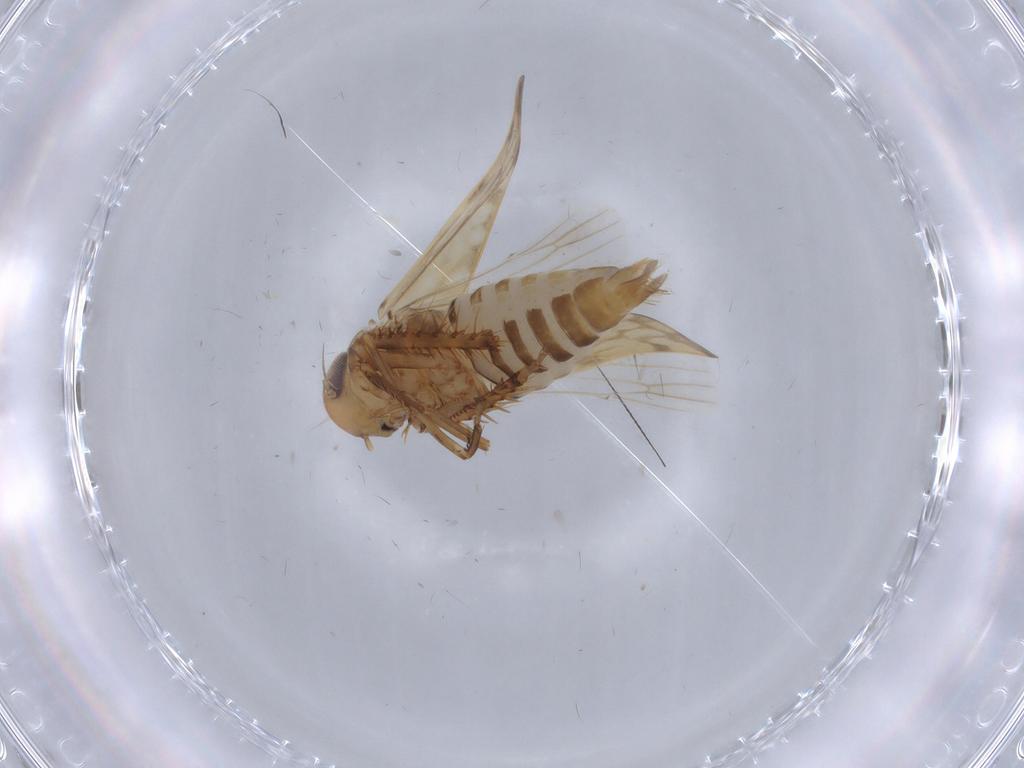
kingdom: Animalia
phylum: Arthropoda
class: Insecta
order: Hemiptera
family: Cicadellidae
